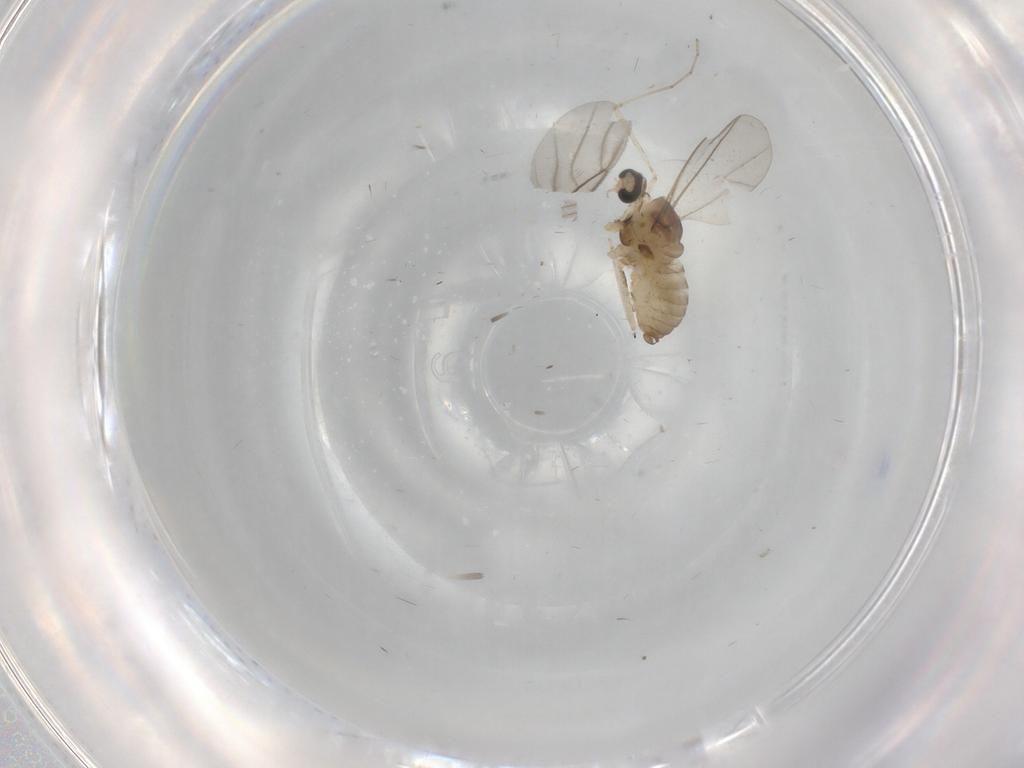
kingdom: Animalia
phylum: Arthropoda
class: Insecta
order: Diptera
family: Cecidomyiidae
